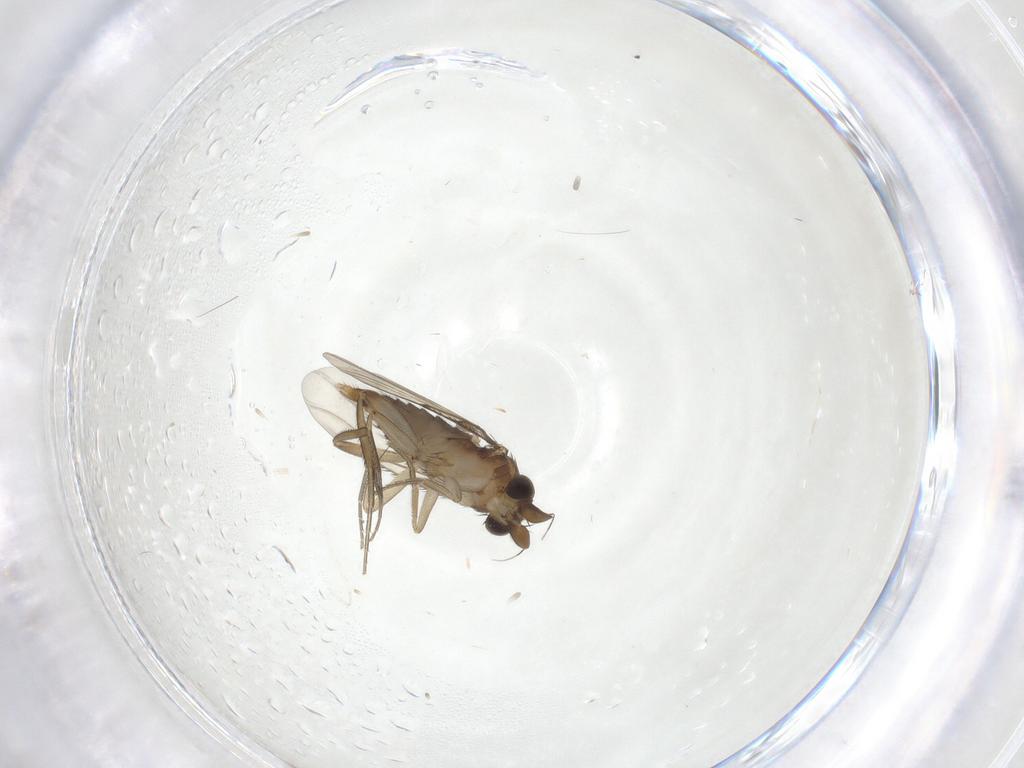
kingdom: Animalia
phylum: Arthropoda
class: Insecta
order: Diptera
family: Phoridae
